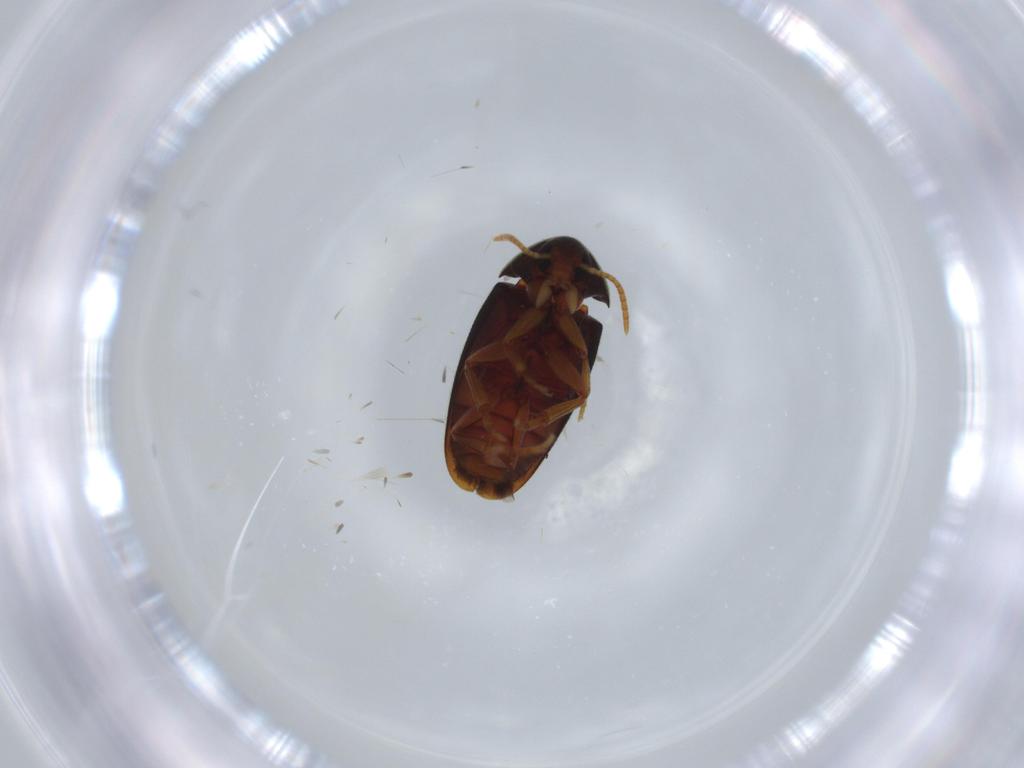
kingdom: Animalia
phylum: Arthropoda
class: Insecta
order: Coleoptera
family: Scraptiidae
